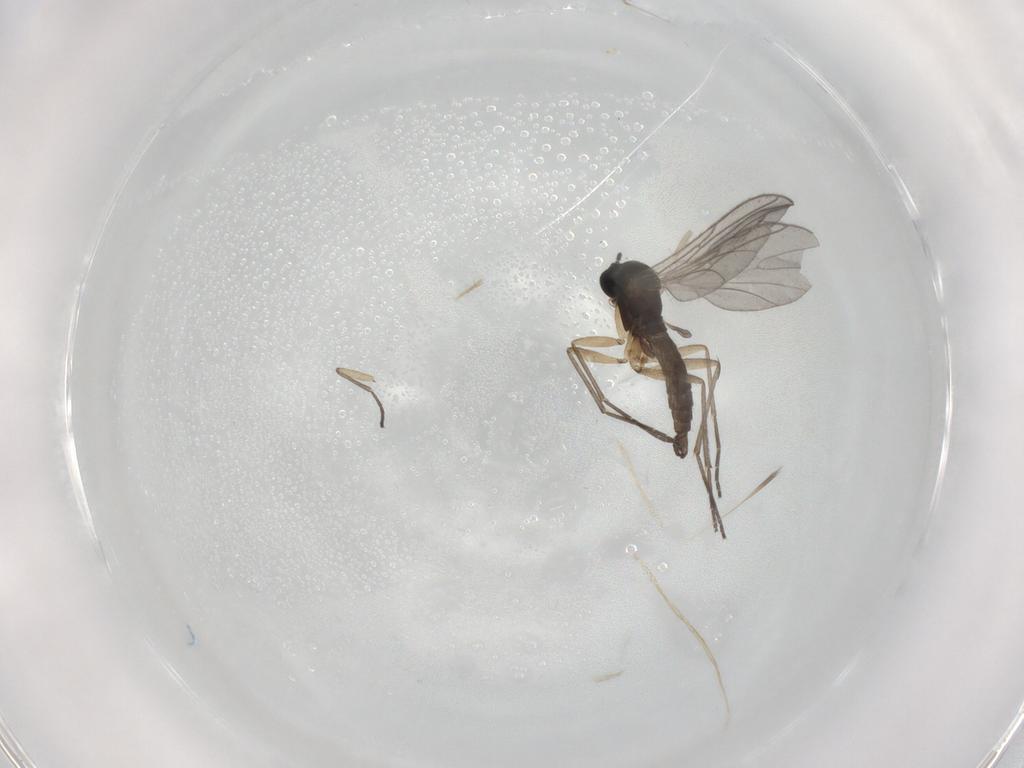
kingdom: Animalia
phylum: Arthropoda
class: Insecta
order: Diptera
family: Sciaridae
